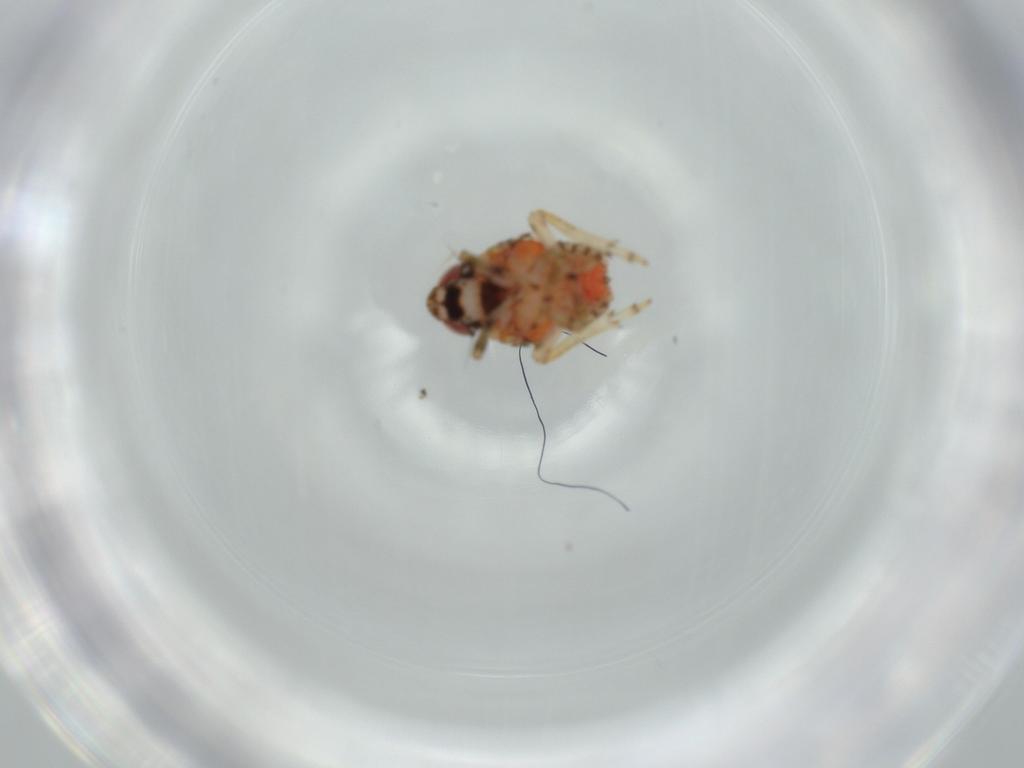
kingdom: Animalia
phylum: Arthropoda
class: Insecta
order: Hemiptera
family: Issidae
